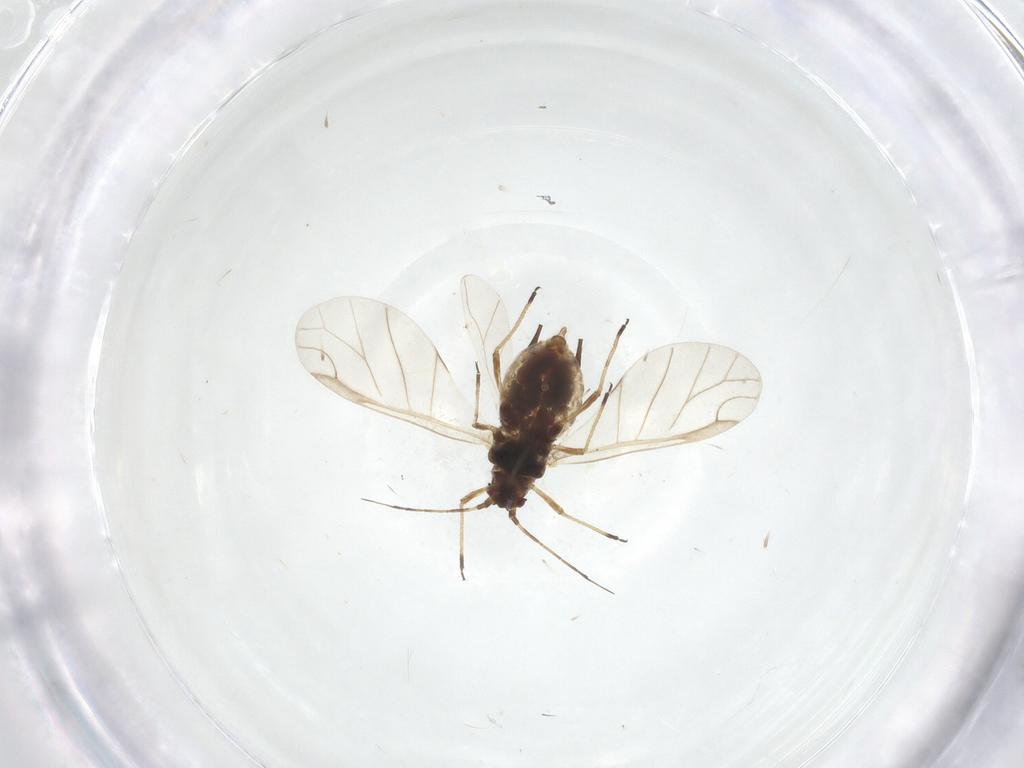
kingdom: Animalia
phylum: Arthropoda
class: Insecta
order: Hemiptera
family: Aphididae
